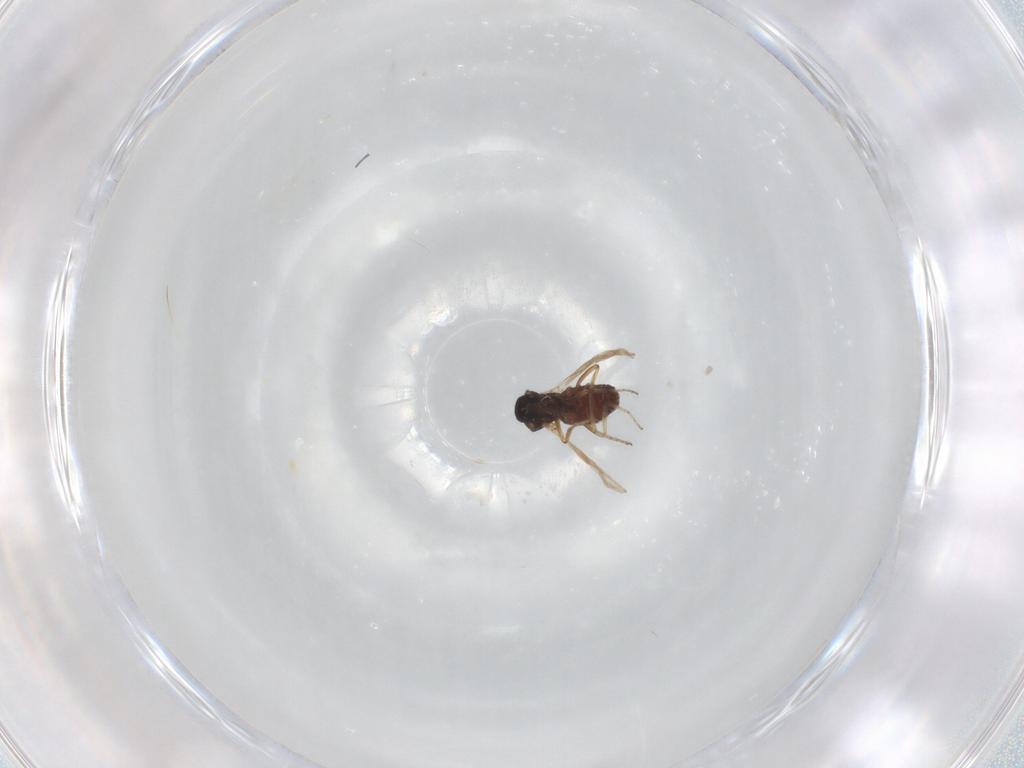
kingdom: Animalia
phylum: Arthropoda
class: Insecta
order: Diptera
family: Ceratopogonidae
